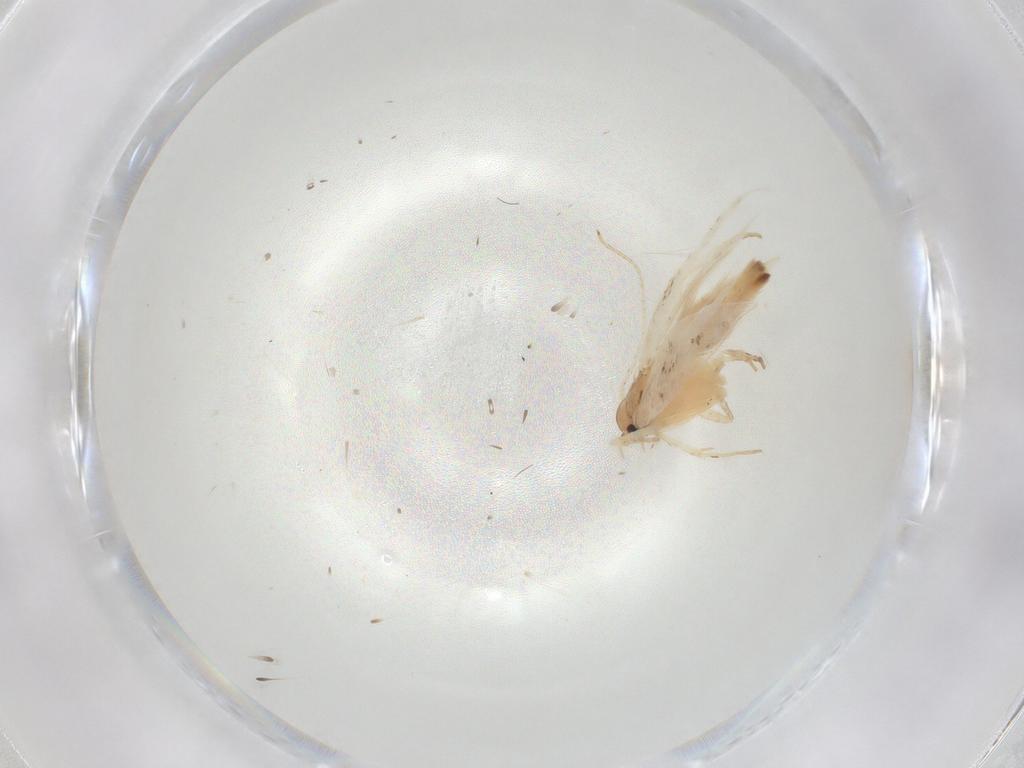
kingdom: Animalia
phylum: Arthropoda
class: Insecta
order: Lepidoptera
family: Gelechiidae
